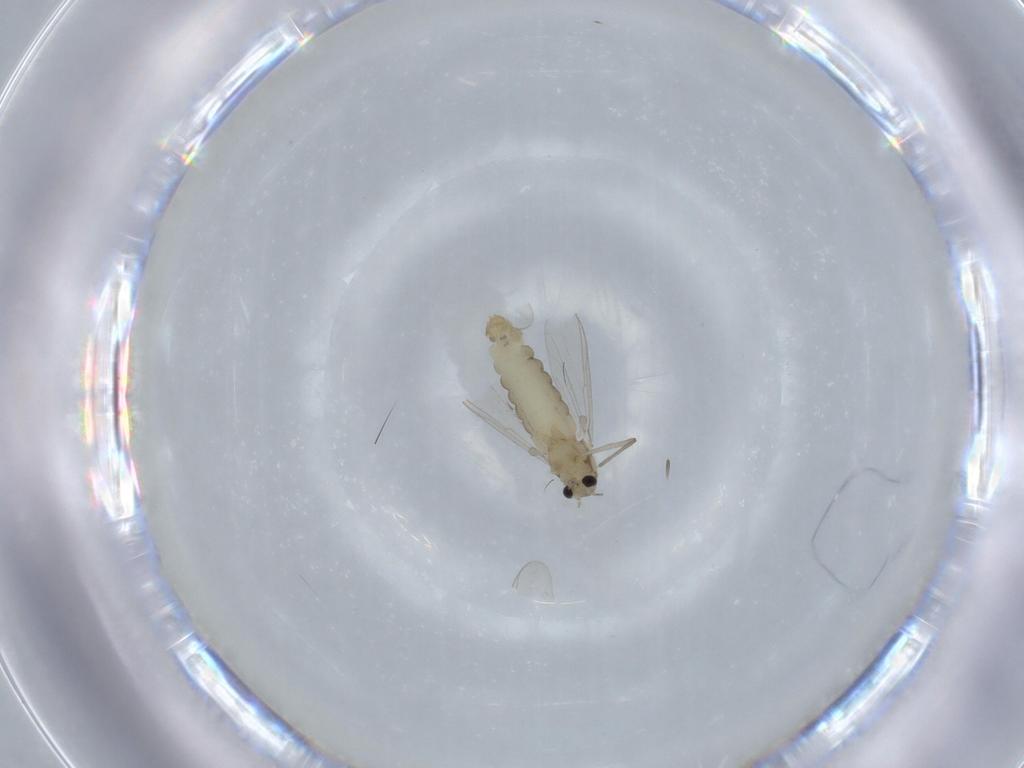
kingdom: Animalia
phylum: Arthropoda
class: Insecta
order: Diptera
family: Chironomidae
